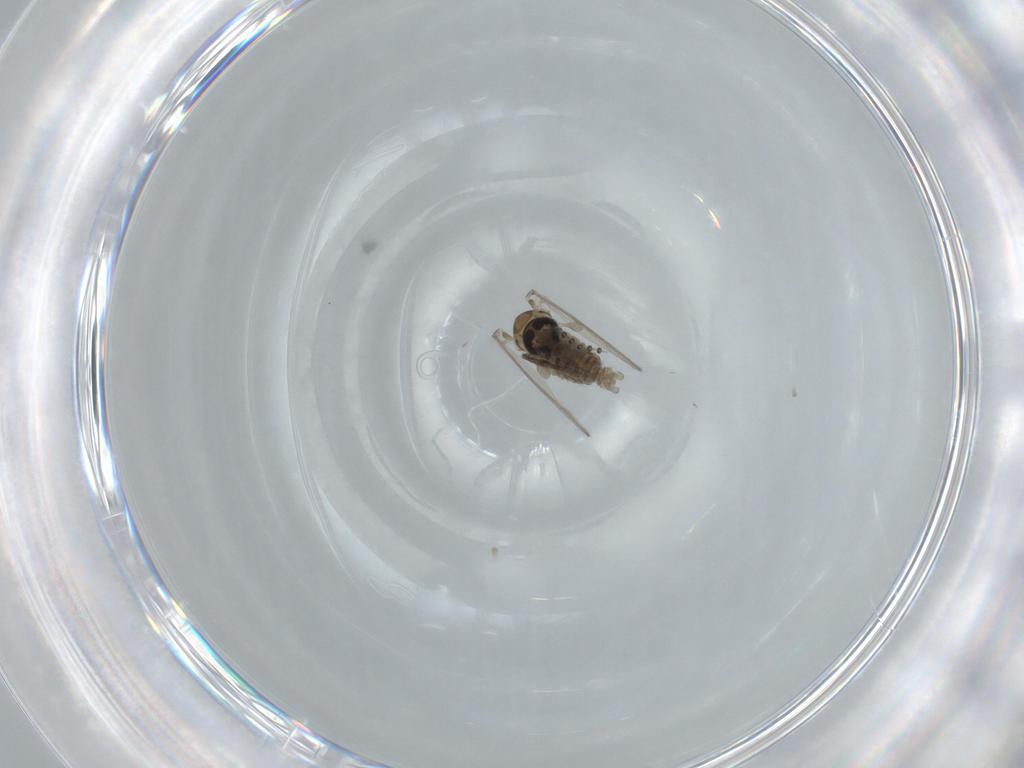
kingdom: Animalia
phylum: Arthropoda
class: Insecta
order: Diptera
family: Psychodidae
